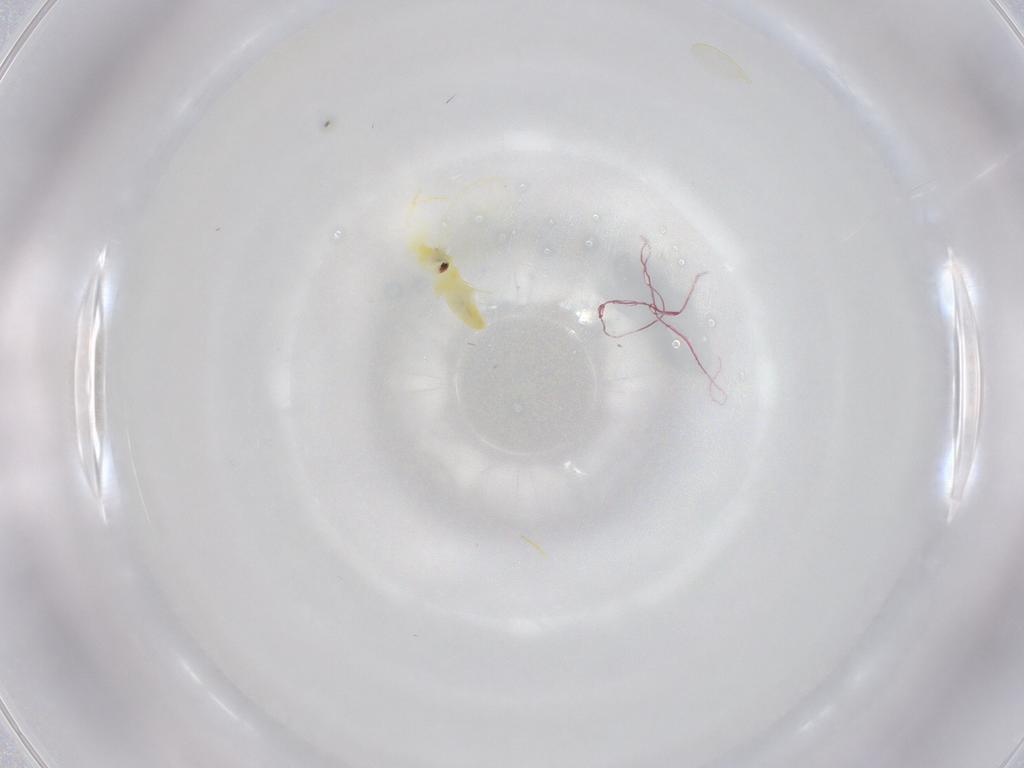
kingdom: Animalia
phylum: Arthropoda
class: Insecta
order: Hemiptera
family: Aleyrodidae
